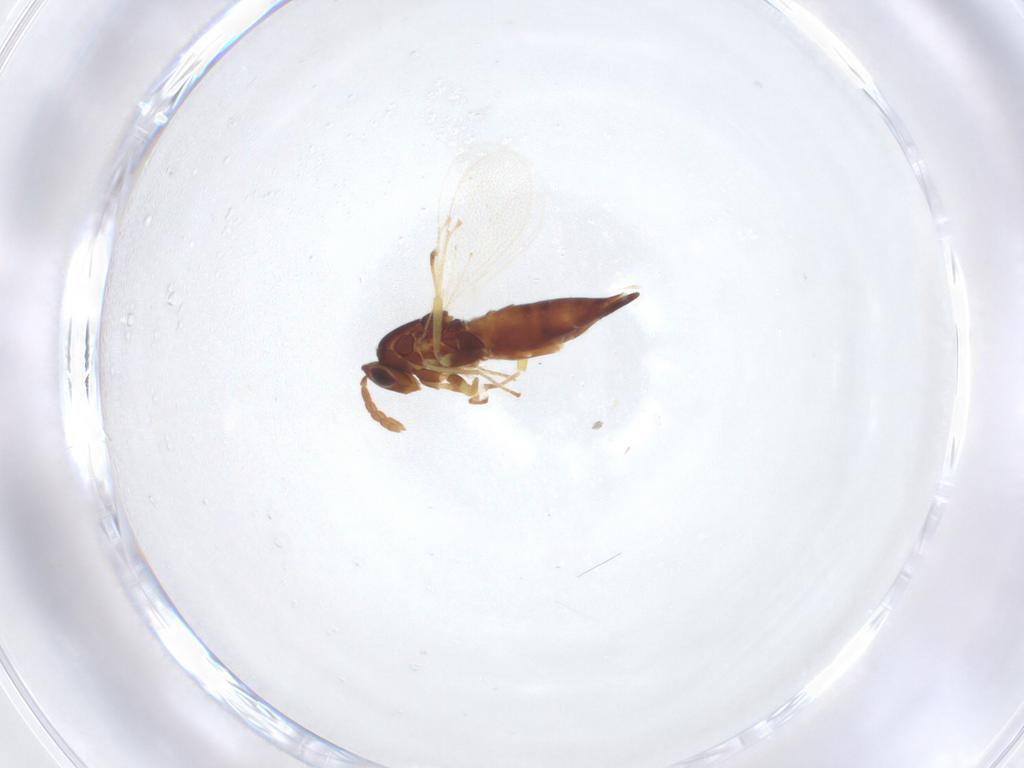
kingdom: Animalia
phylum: Arthropoda
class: Insecta
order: Hymenoptera
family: Eulophidae
